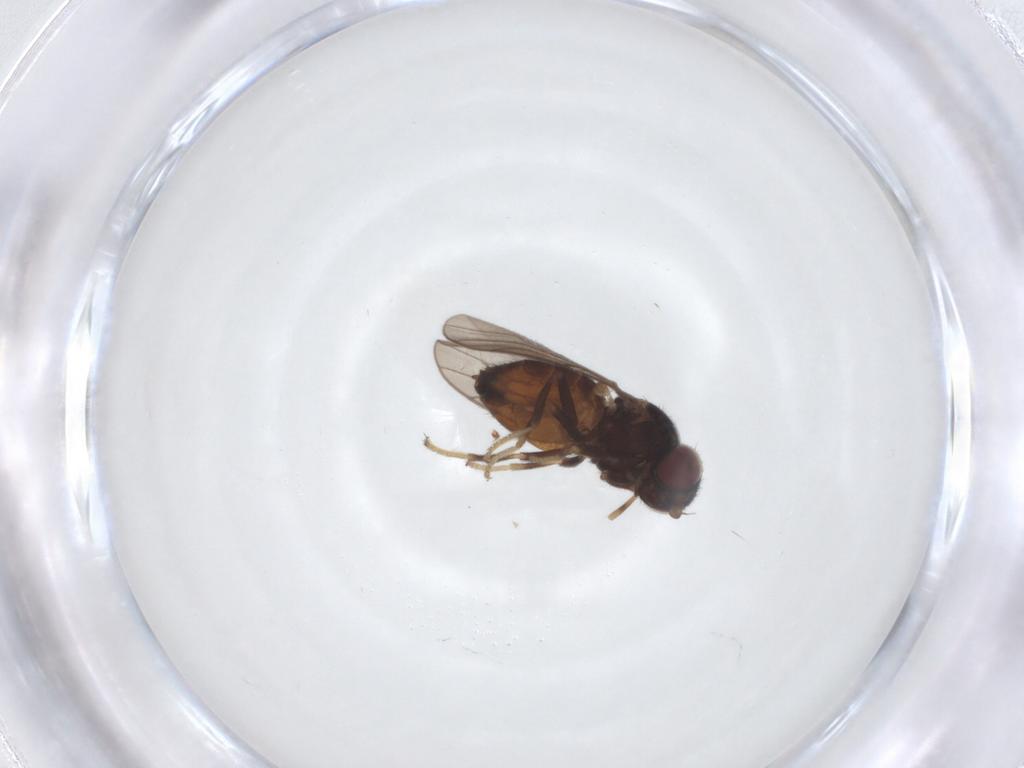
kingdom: Animalia
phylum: Arthropoda
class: Insecta
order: Diptera
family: Chloropidae
